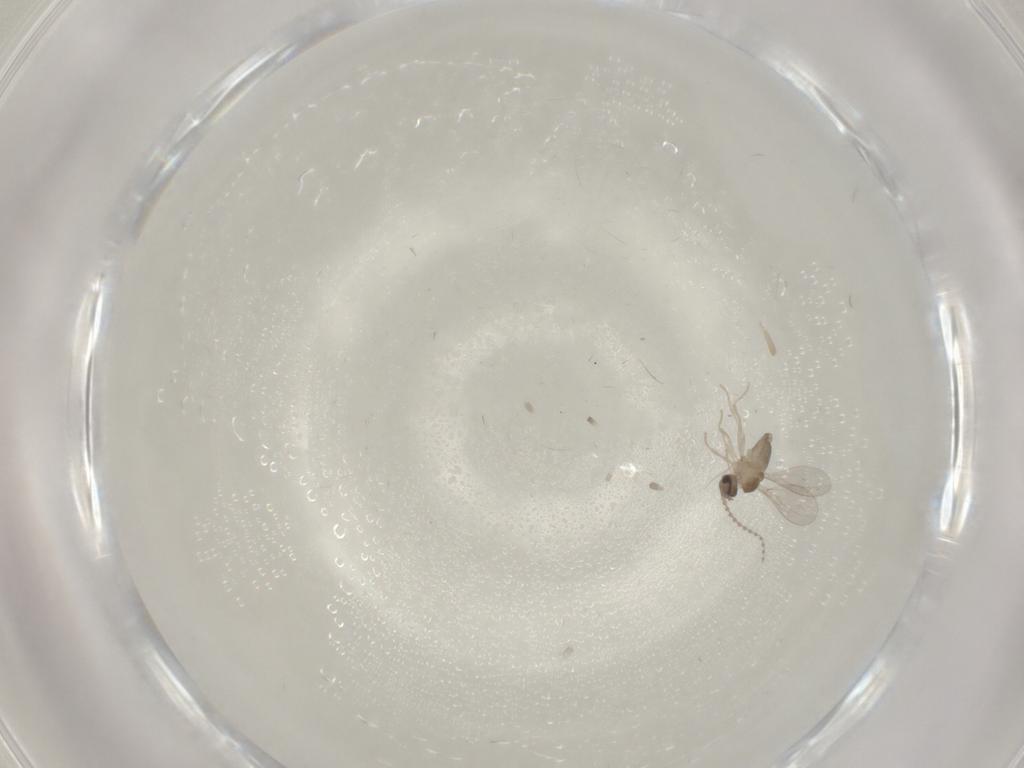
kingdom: Animalia
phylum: Arthropoda
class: Insecta
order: Diptera
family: Cecidomyiidae
